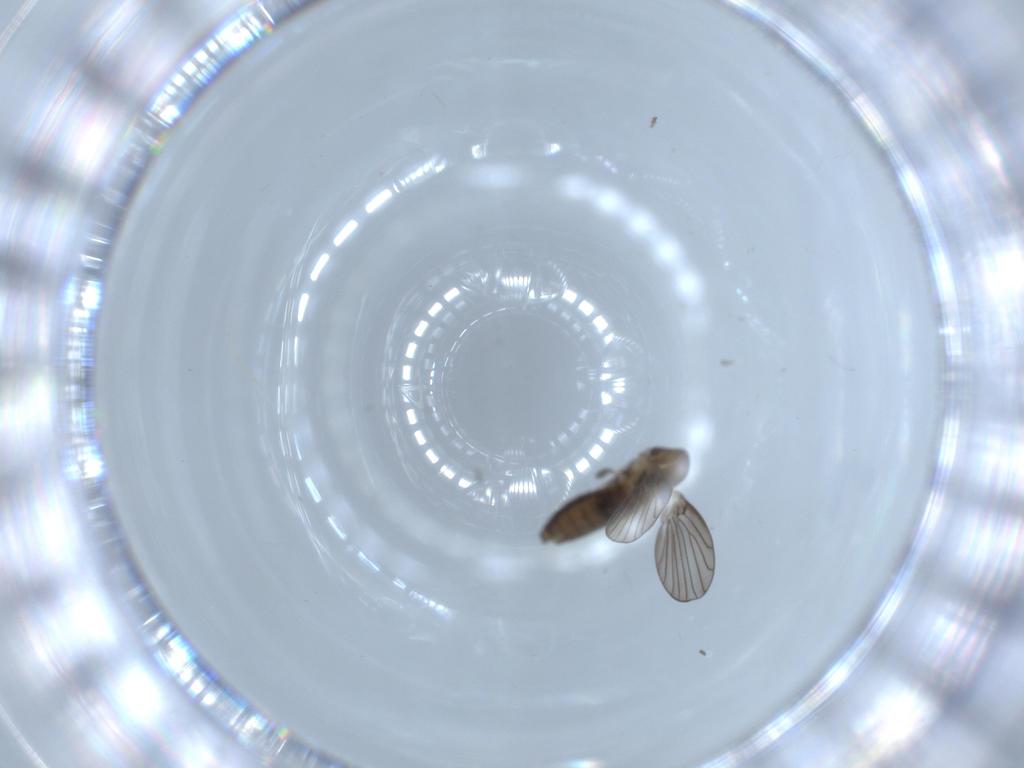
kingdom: Animalia
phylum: Arthropoda
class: Insecta
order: Diptera
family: Psychodidae
